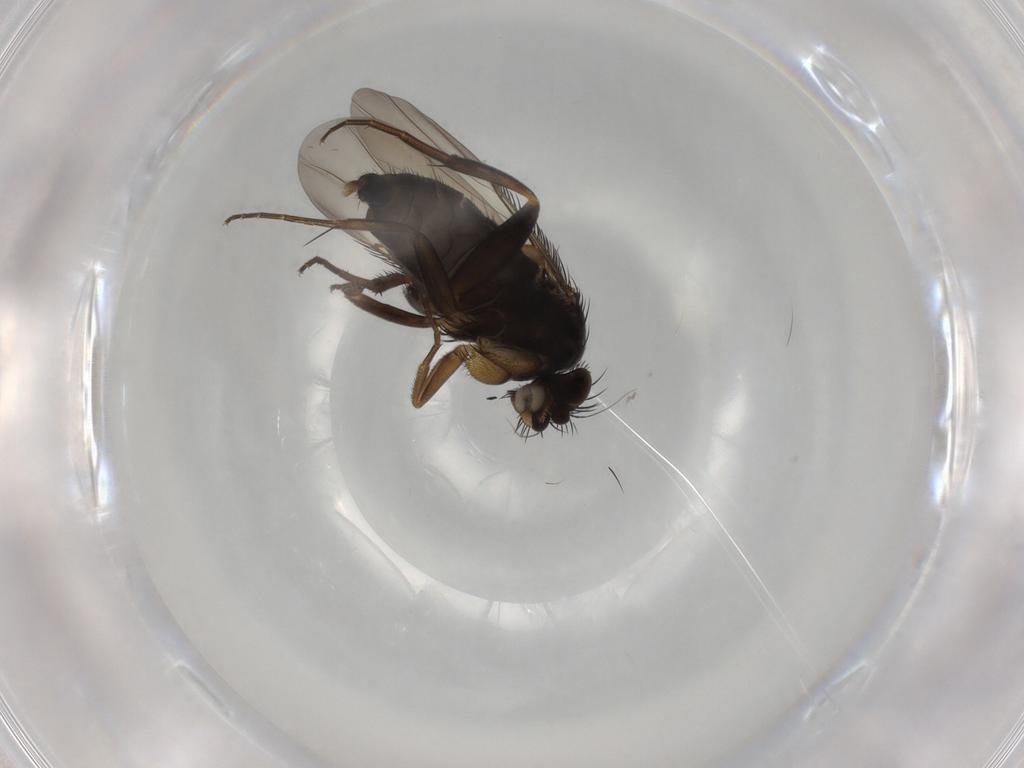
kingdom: Animalia
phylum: Arthropoda
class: Insecta
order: Diptera
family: Phoridae
